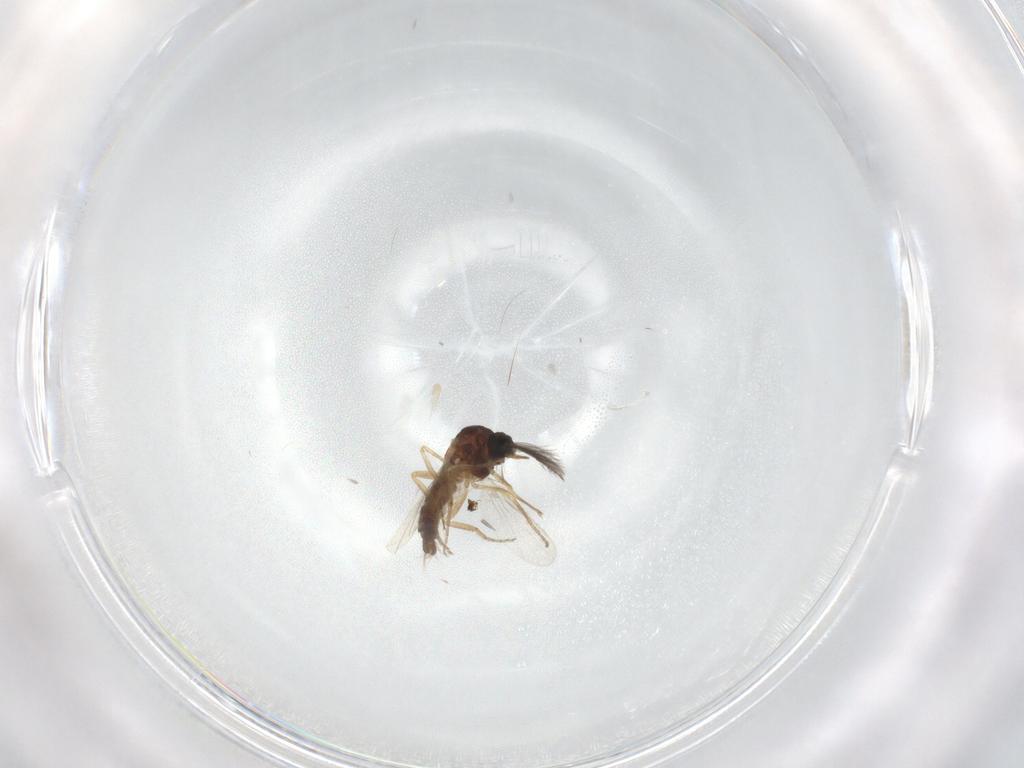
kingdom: Animalia
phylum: Arthropoda
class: Insecta
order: Diptera
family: Ceratopogonidae
